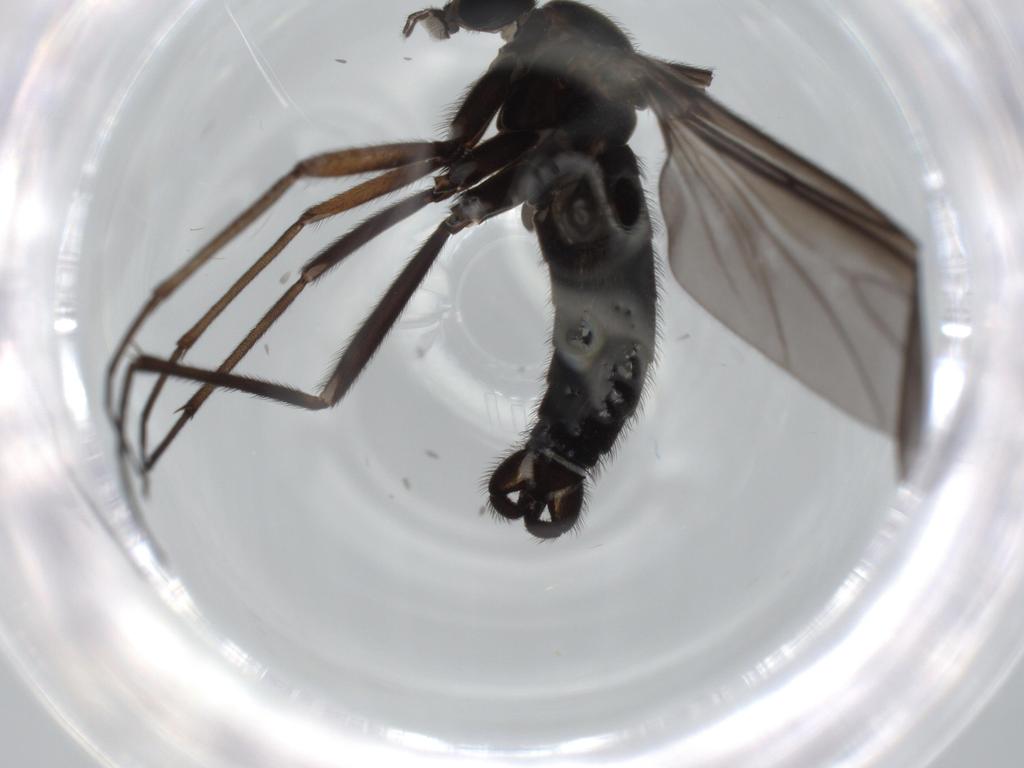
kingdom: Animalia
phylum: Arthropoda
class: Insecta
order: Diptera
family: Sciaridae
